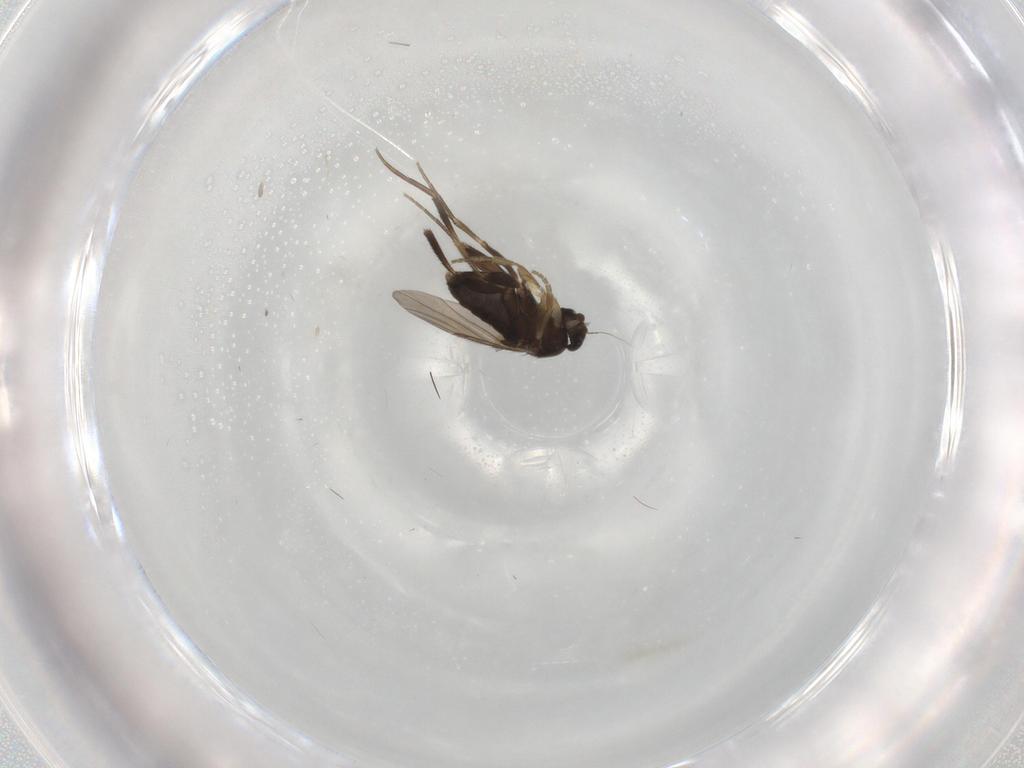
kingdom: Animalia
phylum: Arthropoda
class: Insecta
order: Diptera
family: Phoridae
